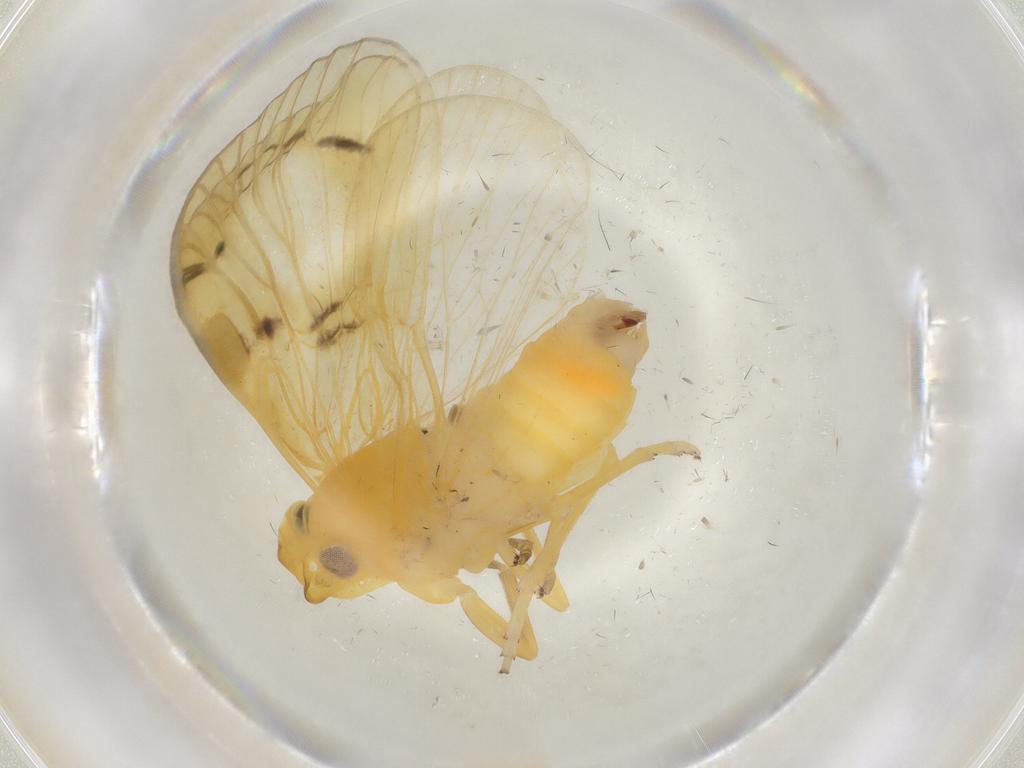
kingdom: Animalia
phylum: Arthropoda
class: Insecta
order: Hemiptera
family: Cixiidae
